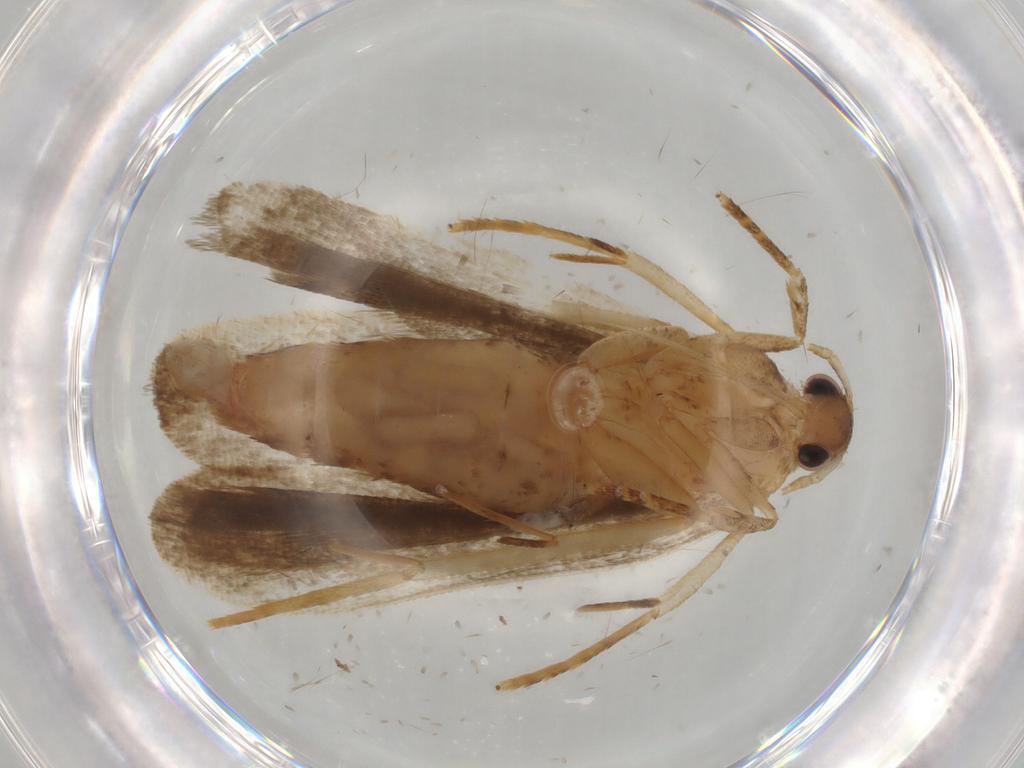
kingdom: Animalia
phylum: Arthropoda
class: Insecta
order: Lepidoptera
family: Autostichidae
